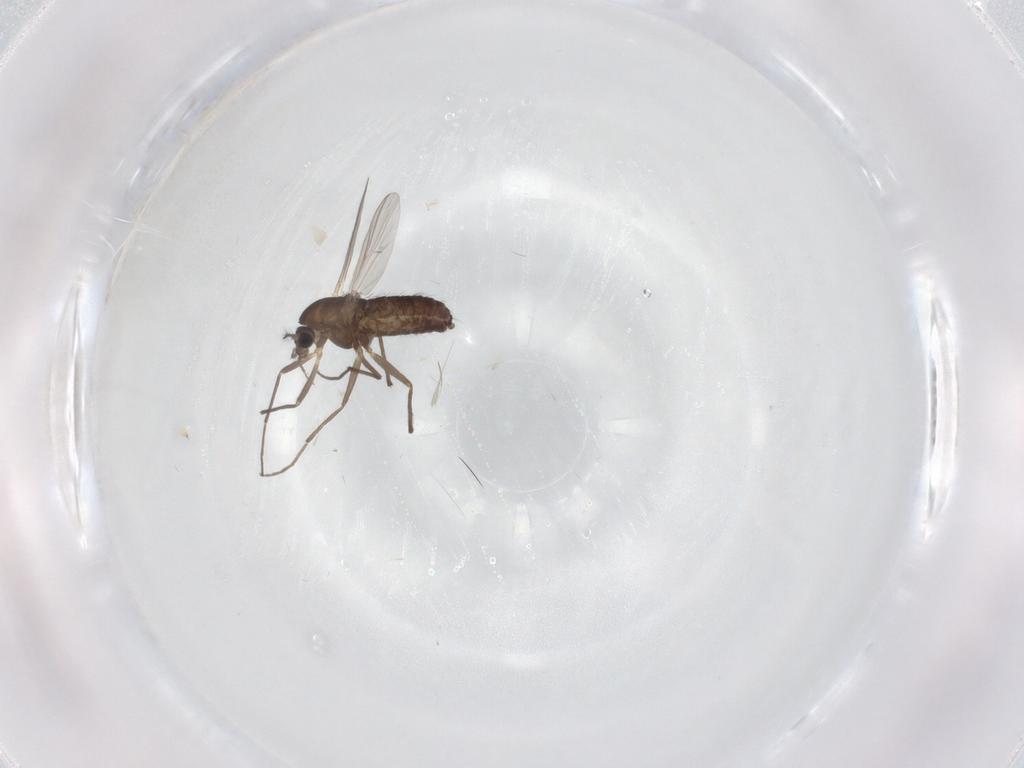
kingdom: Animalia
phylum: Arthropoda
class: Insecta
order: Diptera
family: Chironomidae
